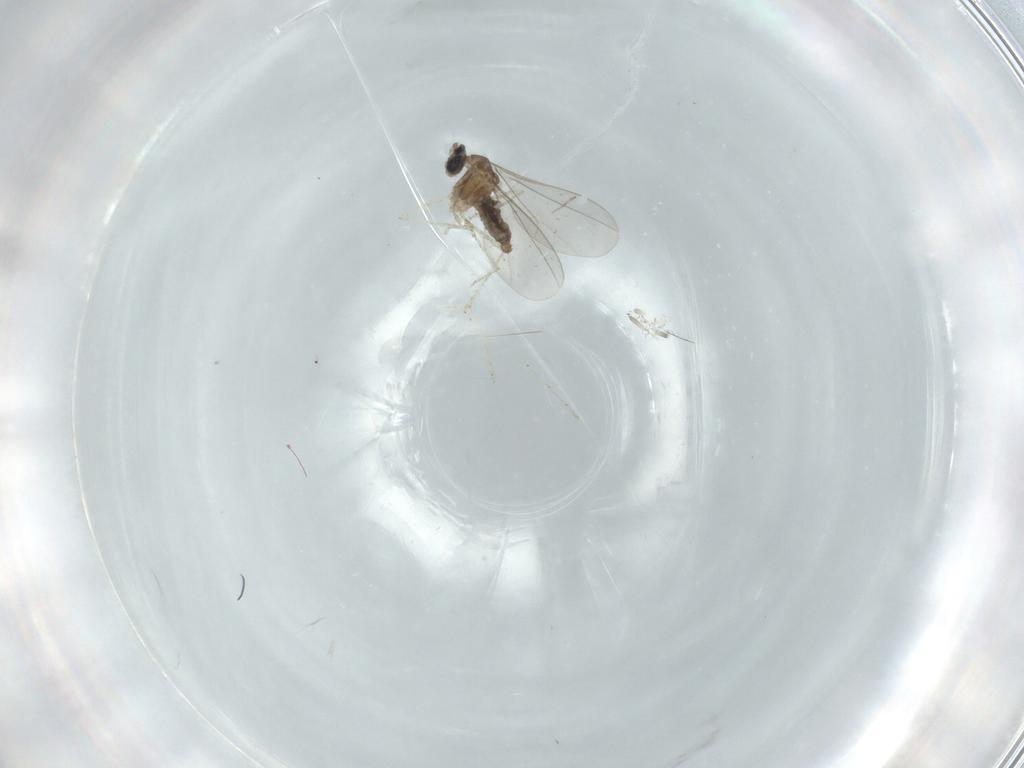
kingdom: Animalia
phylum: Arthropoda
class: Insecta
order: Diptera
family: Cecidomyiidae
